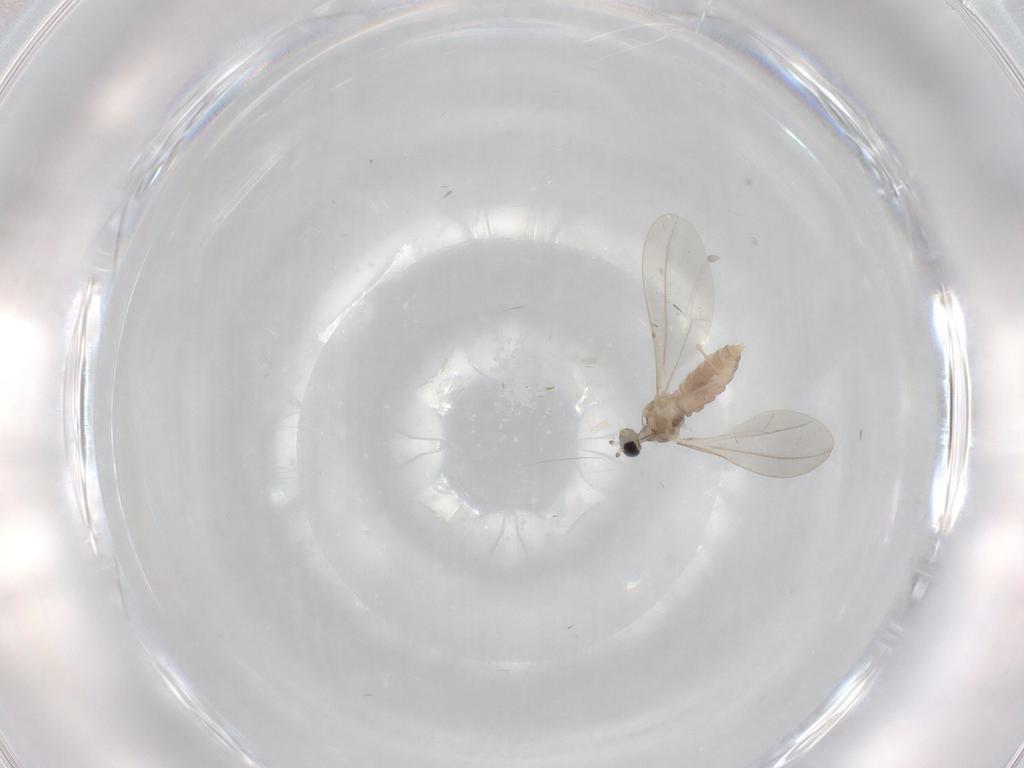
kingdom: Animalia
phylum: Arthropoda
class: Insecta
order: Diptera
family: Cecidomyiidae
